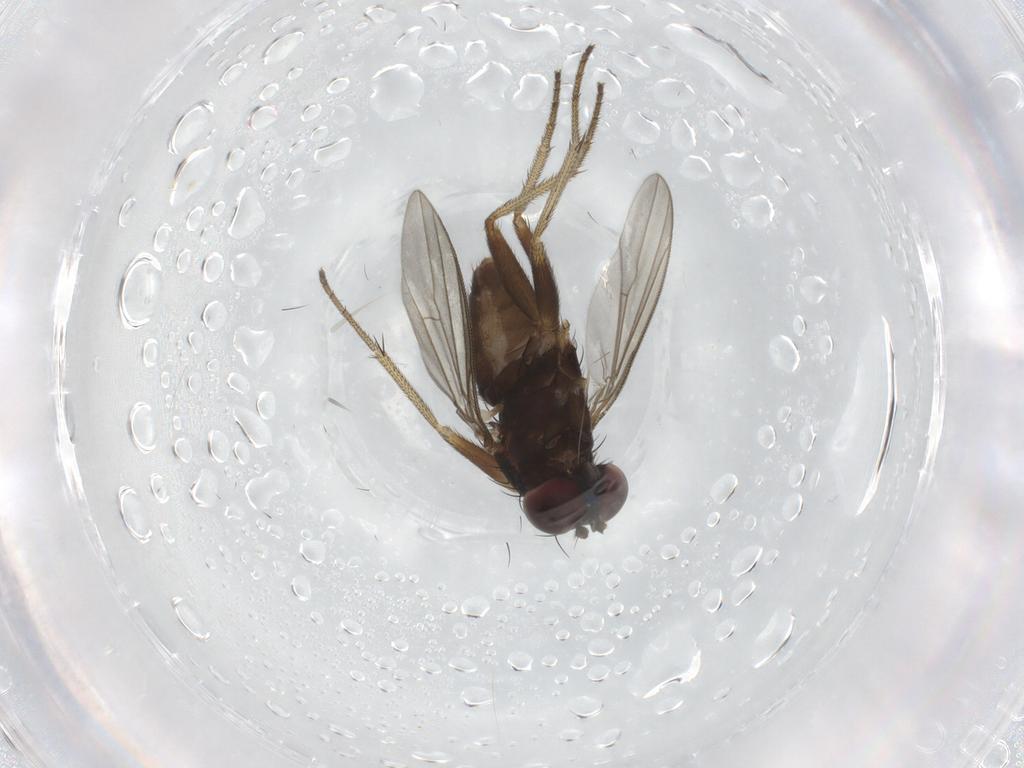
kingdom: Animalia
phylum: Arthropoda
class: Insecta
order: Diptera
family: Dolichopodidae
